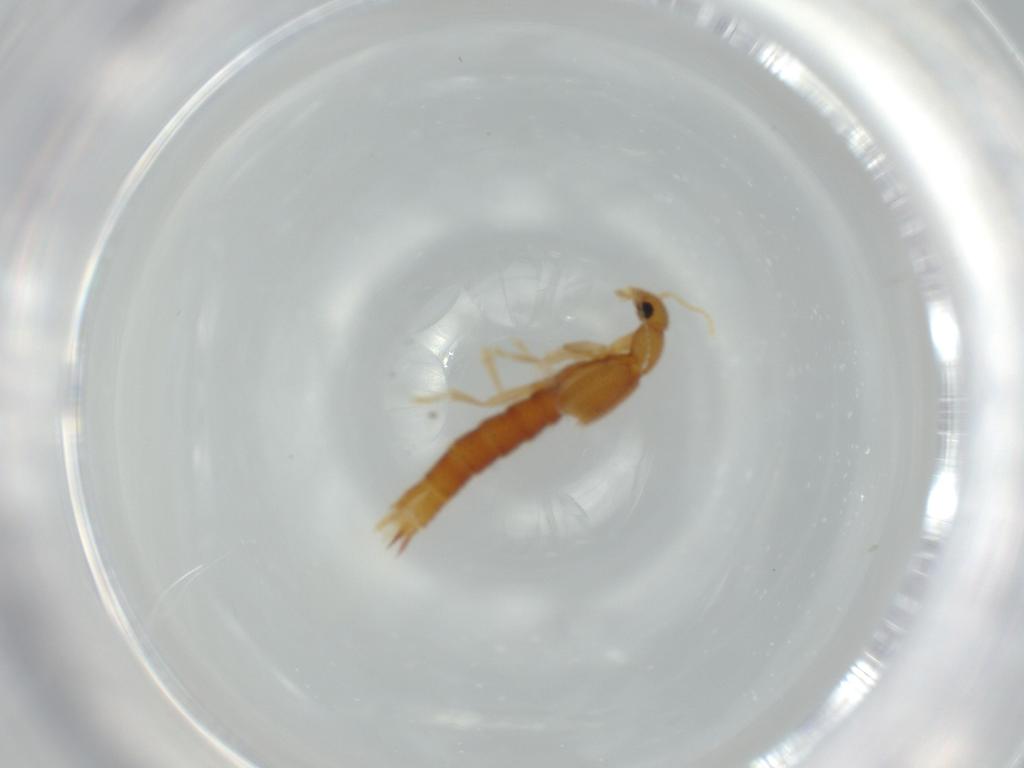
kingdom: Animalia
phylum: Arthropoda
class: Insecta
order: Coleoptera
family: Staphylinidae
